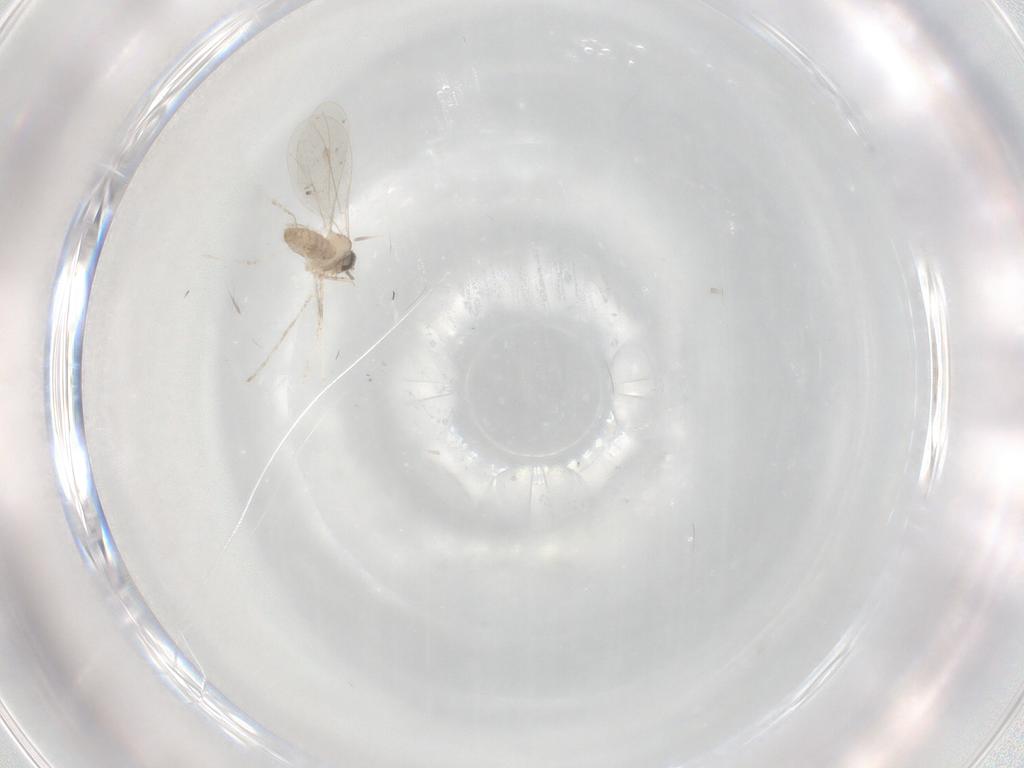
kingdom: Animalia
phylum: Arthropoda
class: Insecta
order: Diptera
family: Cecidomyiidae
